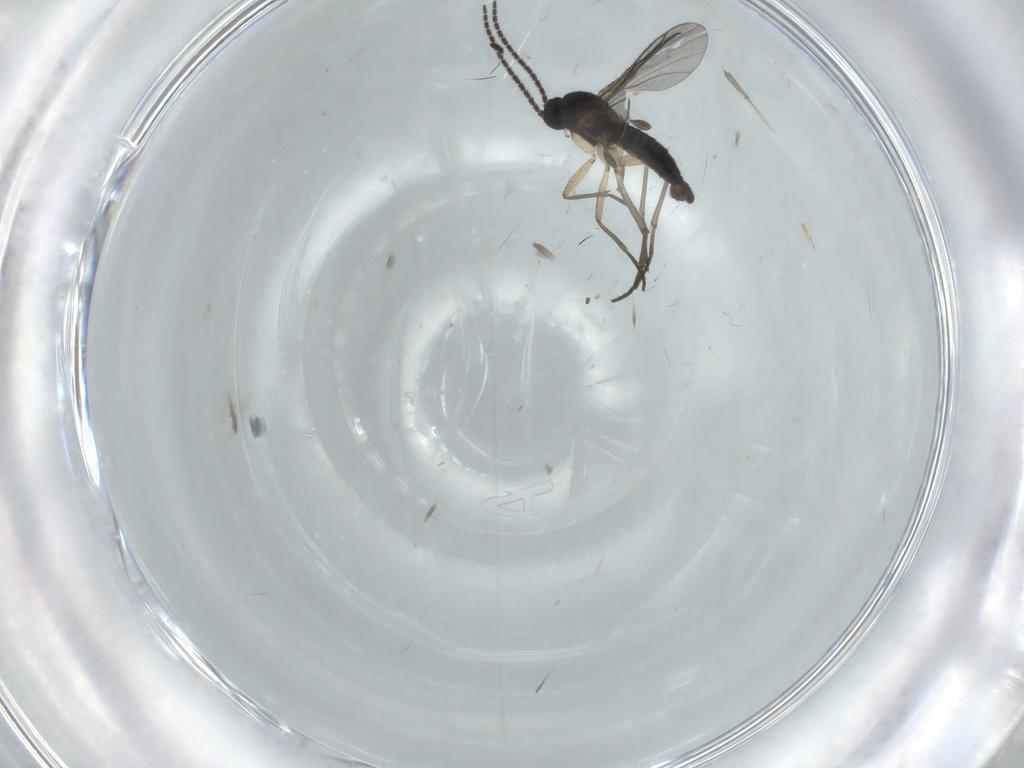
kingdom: Animalia
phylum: Arthropoda
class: Insecta
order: Diptera
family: Sciaridae
